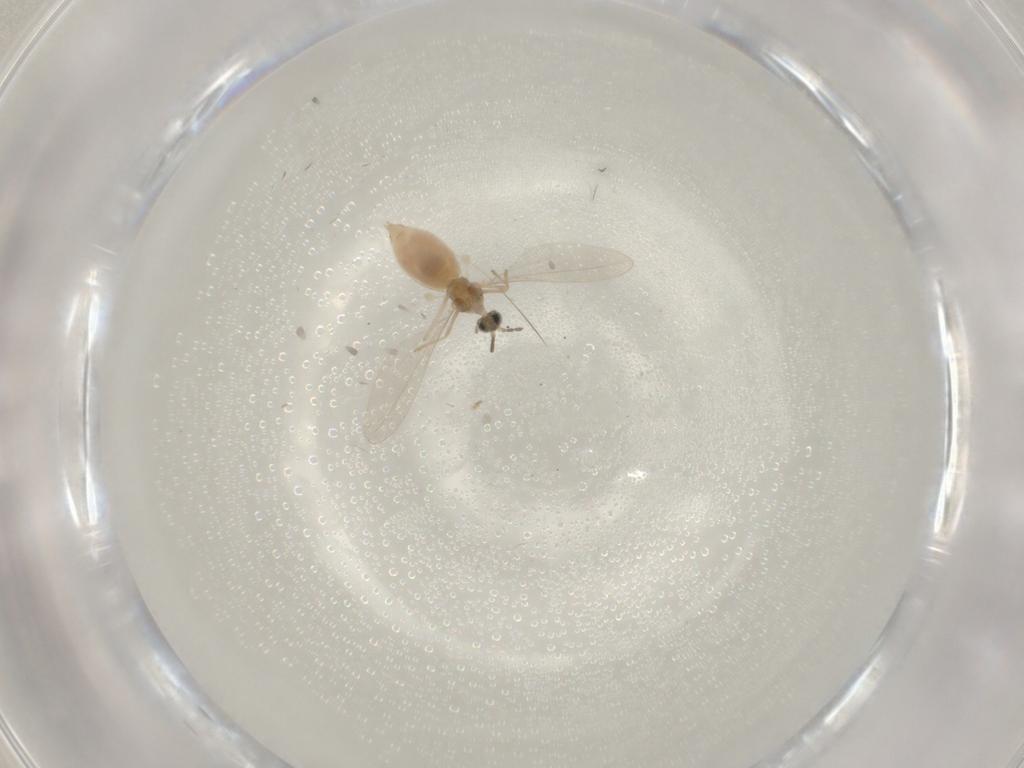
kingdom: Animalia
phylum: Arthropoda
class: Insecta
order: Diptera
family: Cecidomyiidae
